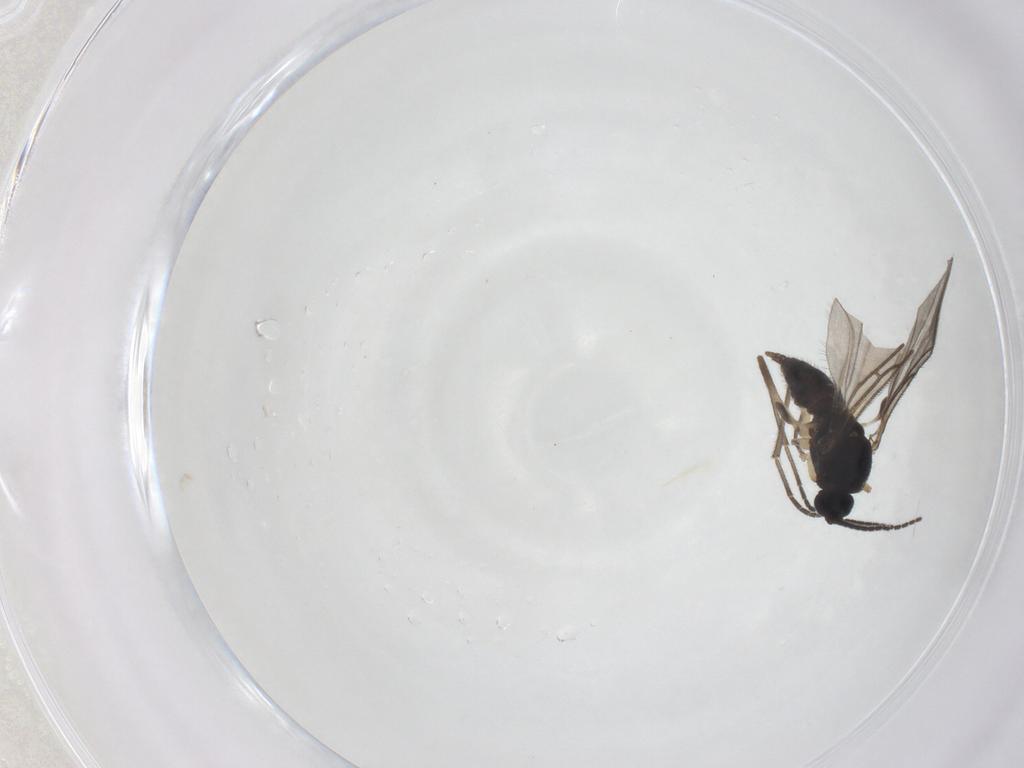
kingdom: Animalia
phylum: Arthropoda
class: Insecta
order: Diptera
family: Sciaridae
